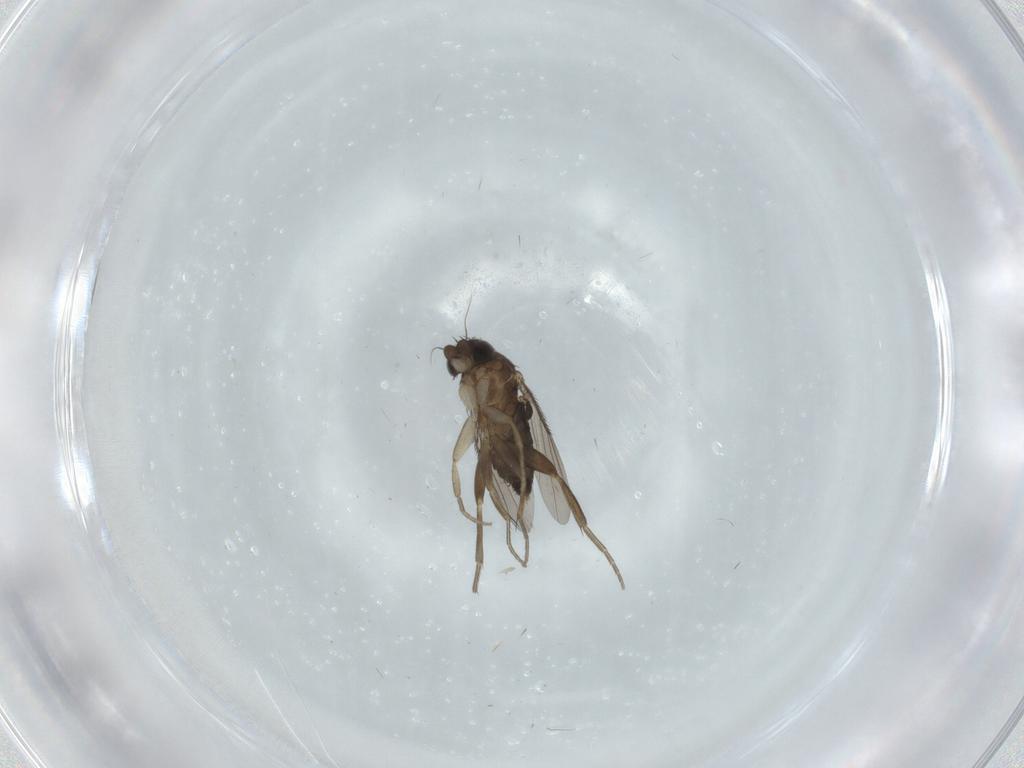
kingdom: Animalia
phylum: Arthropoda
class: Insecta
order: Diptera
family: Phoridae
